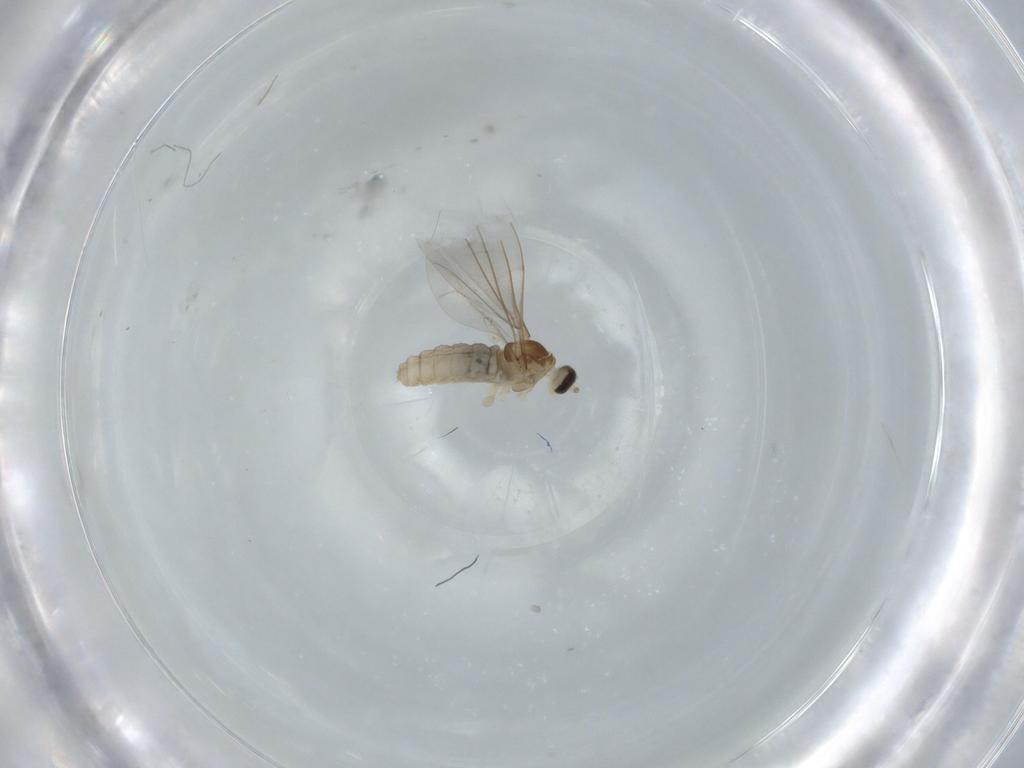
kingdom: Animalia
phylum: Arthropoda
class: Insecta
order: Diptera
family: Cecidomyiidae
